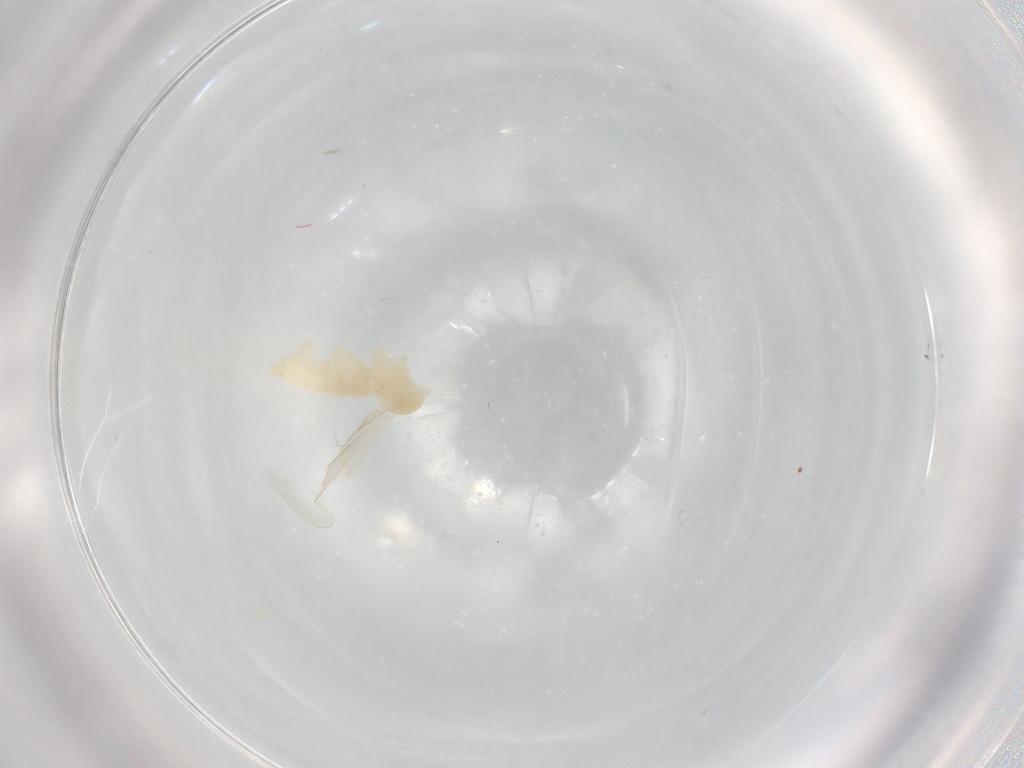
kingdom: Animalia
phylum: Arthropoda
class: Insecta
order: Diptera
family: Cecidomyiidae
